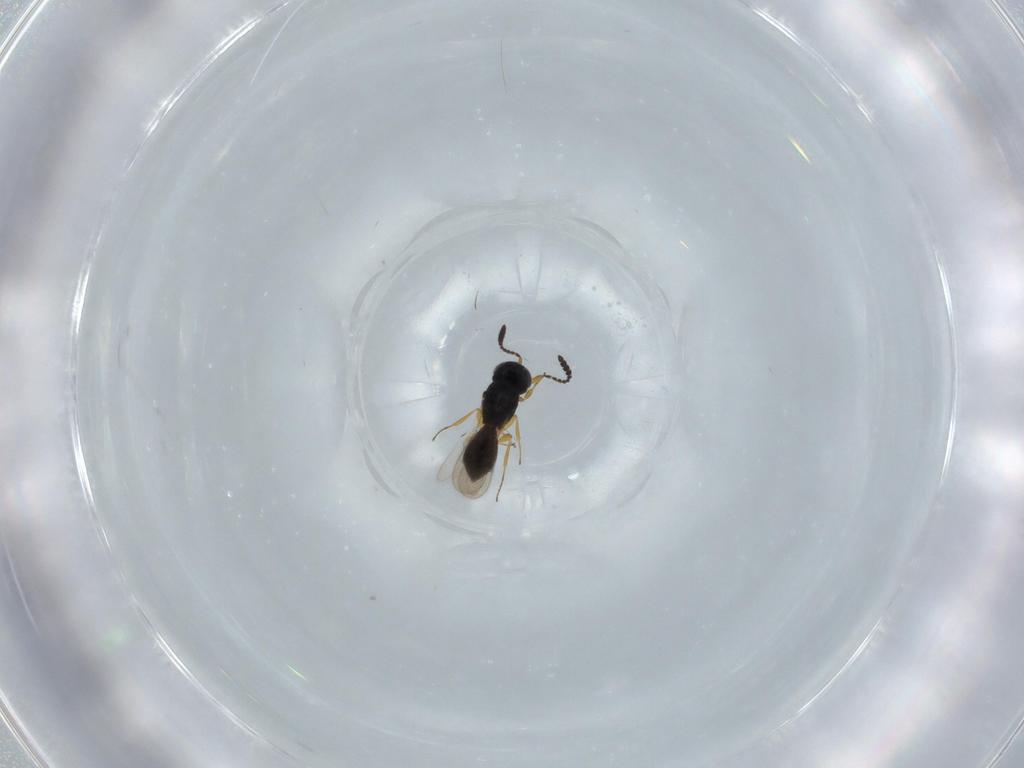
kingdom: Animalia
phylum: Arthropoda
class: Insecta
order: Hymenoptera
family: Scelionidae
